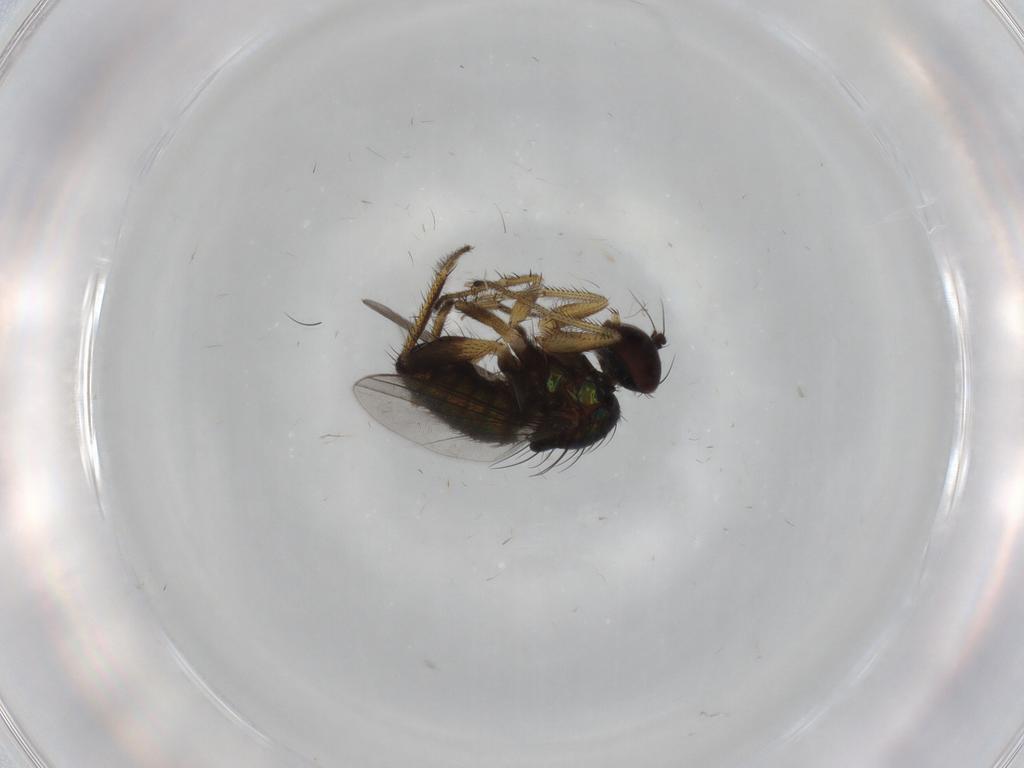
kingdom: Animalia
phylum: Arthropoda
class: Insecta
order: Diptera
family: Dolichopodidae
